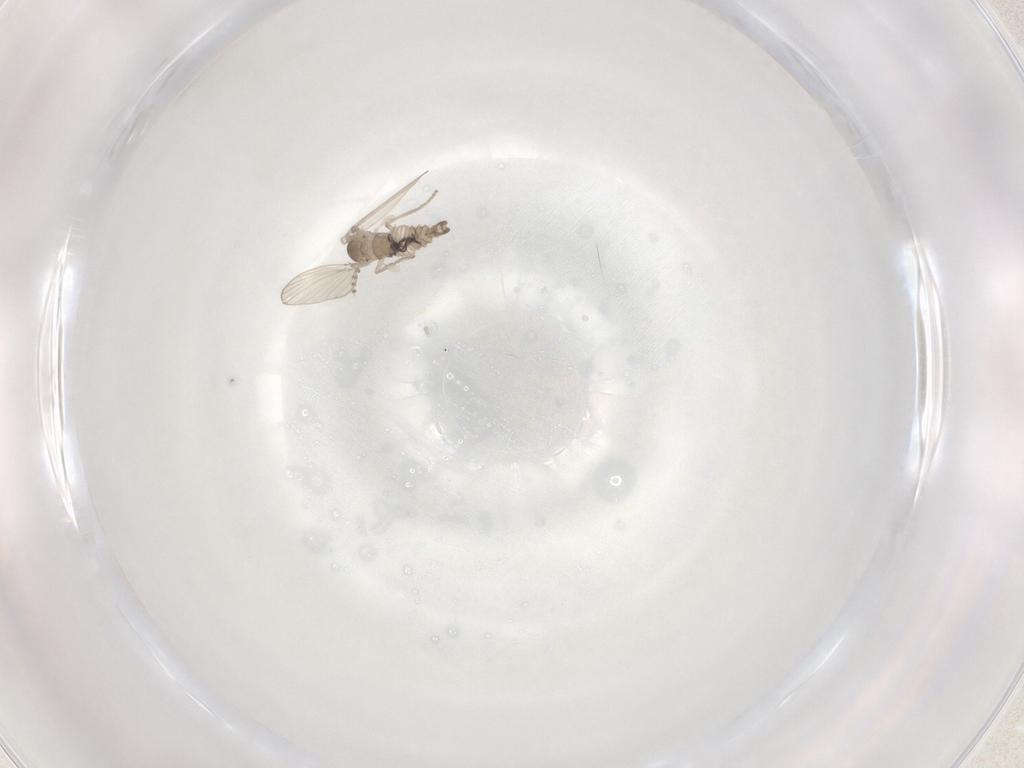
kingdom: Animalia
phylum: Arthropoda
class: Insecta
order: Diptera
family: Psychodidae
